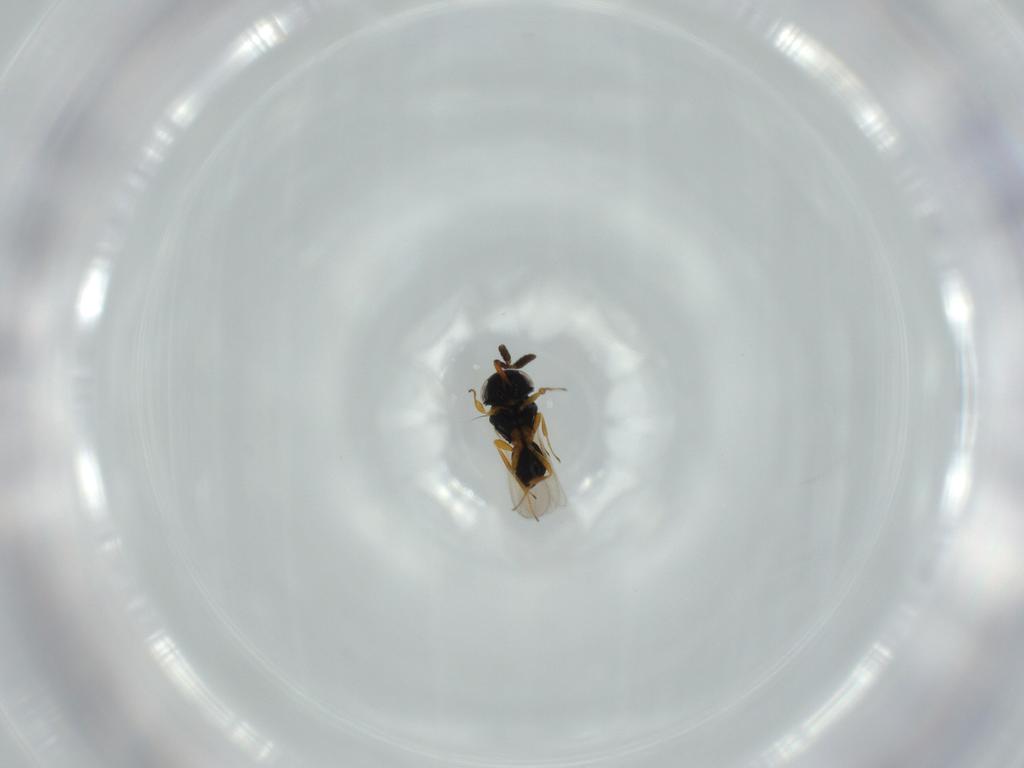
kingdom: Animalia
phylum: Arthropoda
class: Insecta
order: Hymenoptera
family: Scelionidae
